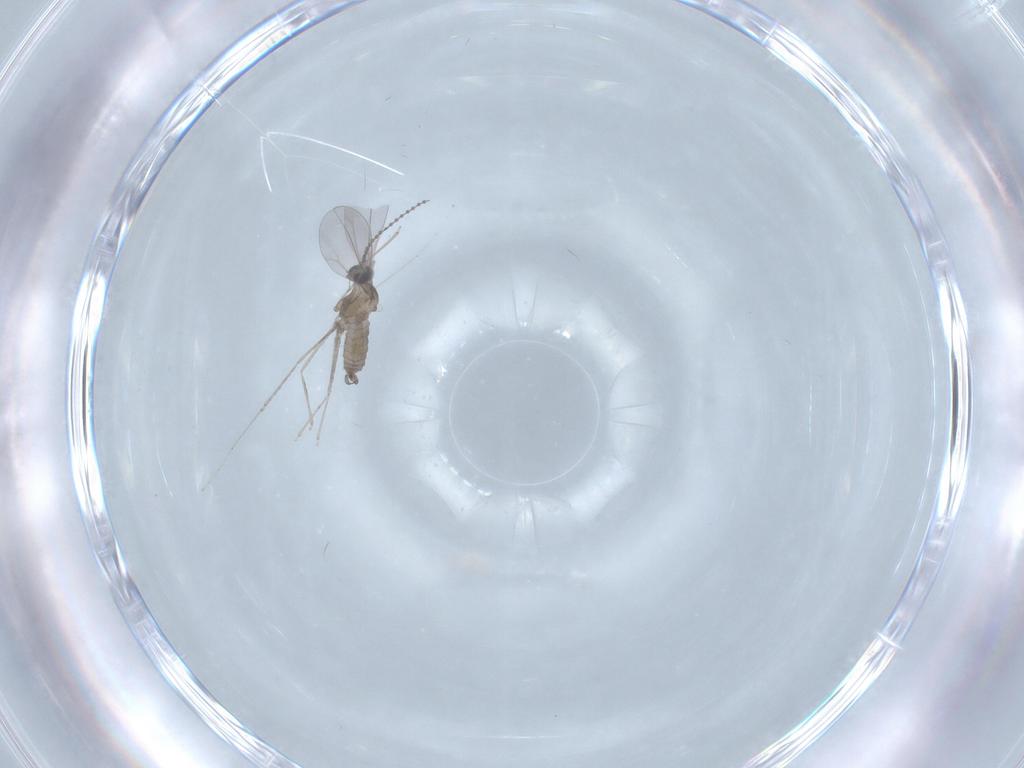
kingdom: Animalia
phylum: Arthropoda
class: Insecta
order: Diptera
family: Cecidomyiidae
